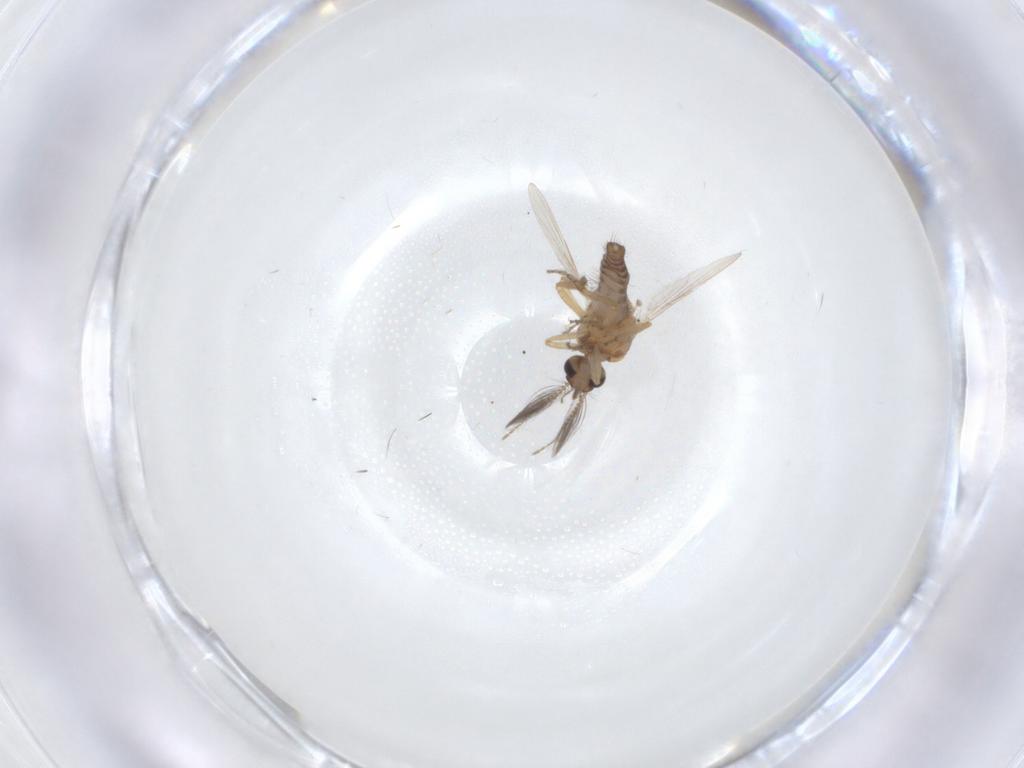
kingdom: Animalia
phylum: Arthropoda
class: Insecta
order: Diptera
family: Ceratopogonidae
